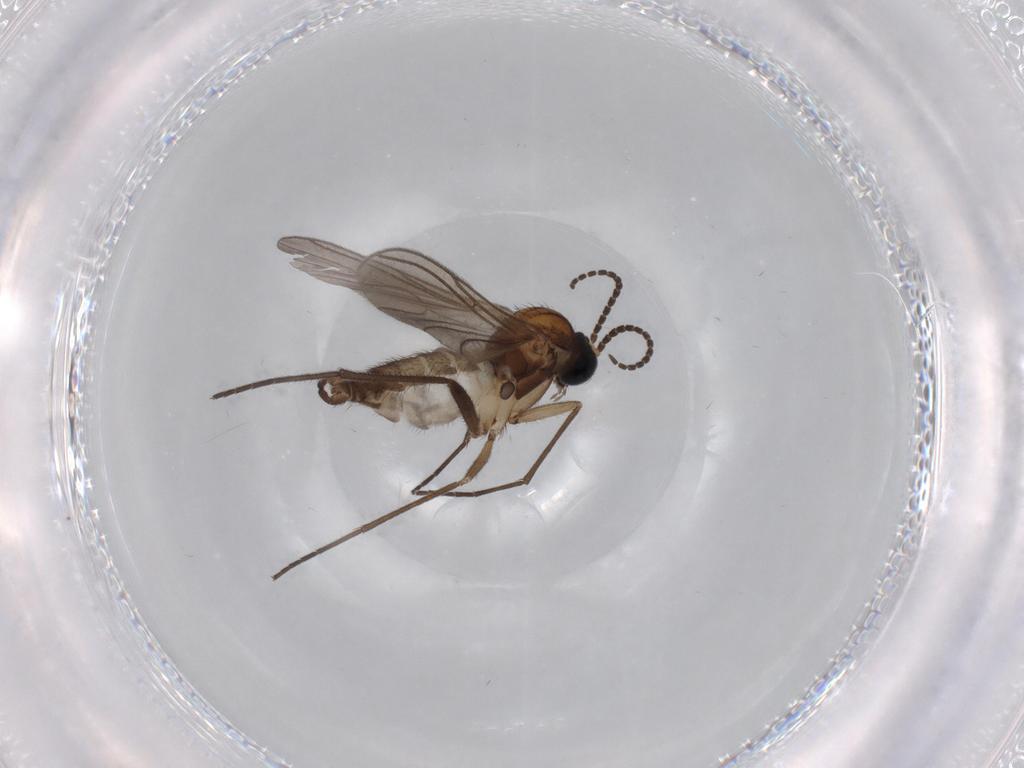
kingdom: Animalia
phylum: Arthropoda
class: Insecta
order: Diptera
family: Sciaridae
